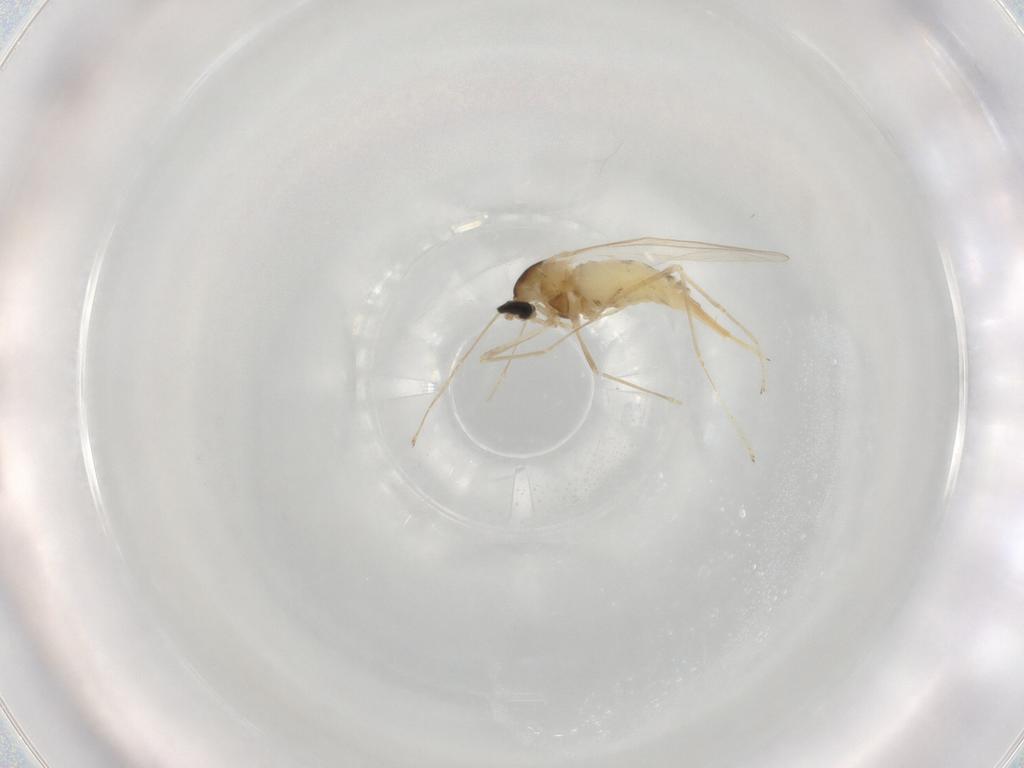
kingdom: Animalia
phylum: Arthropoda
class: Insecta
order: Diptera
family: Cecidomyiidae
